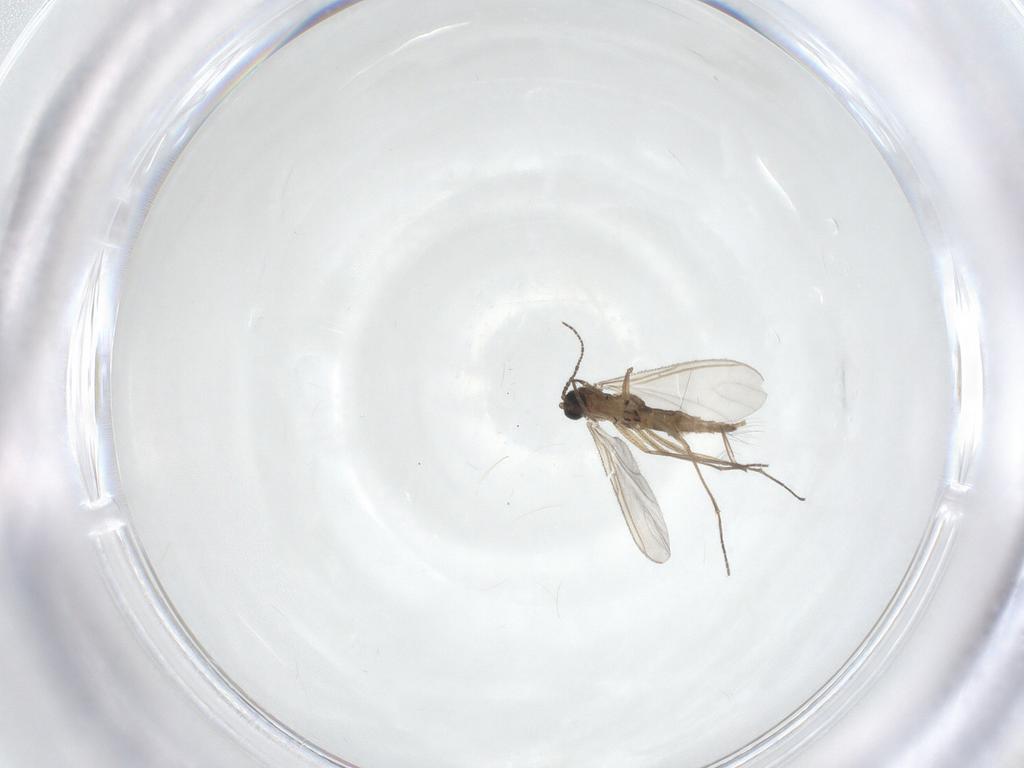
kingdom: Animalia
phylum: Arthropoda
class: Insecta
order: Diptera
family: Sciaridae
